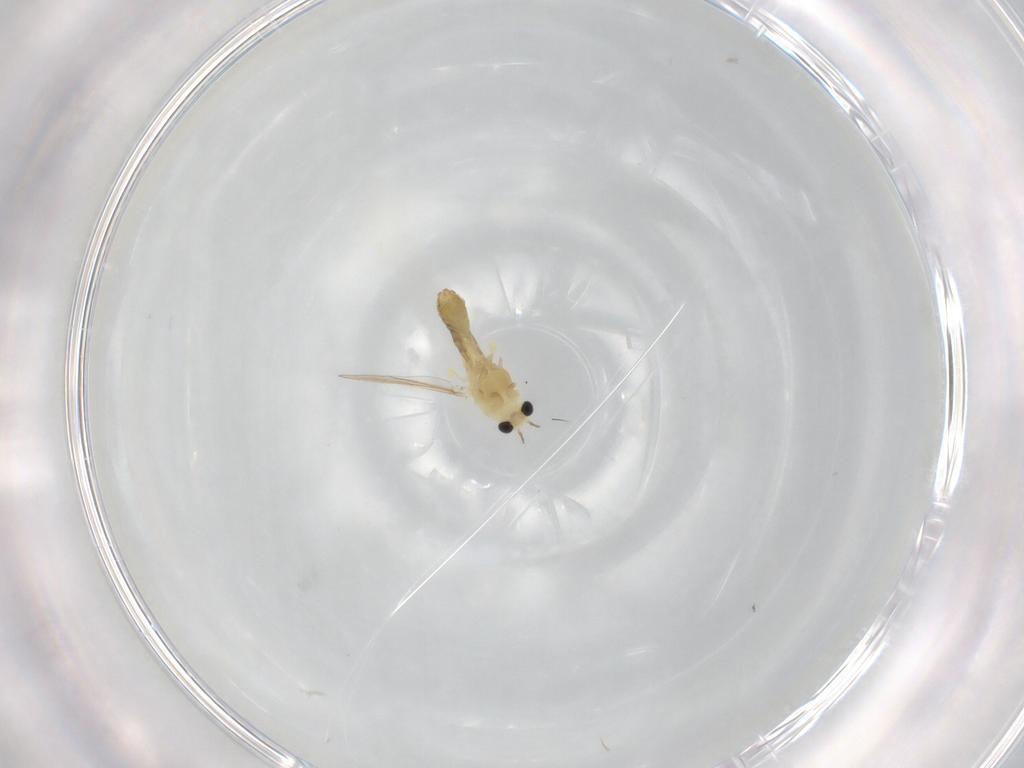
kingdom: Animalia
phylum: Arthropoda
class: Insecta
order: Diptera
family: Chironomidae
